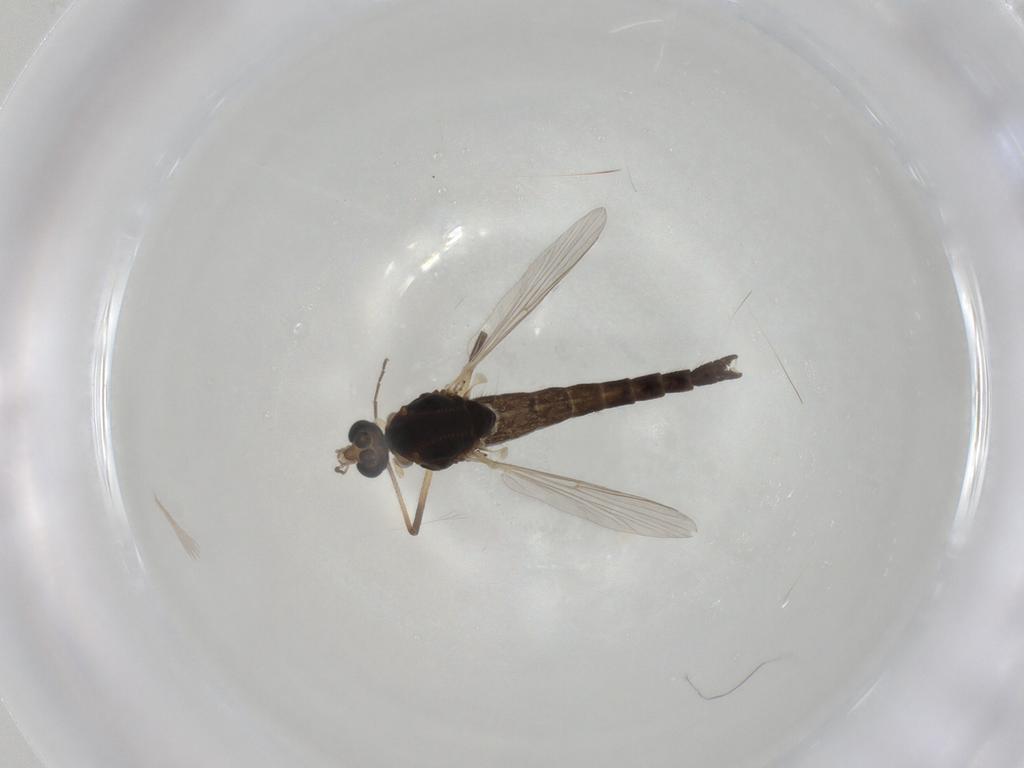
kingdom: Animalia
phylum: Arthropoda
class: Insecta
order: Diptera
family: Chironomidae
